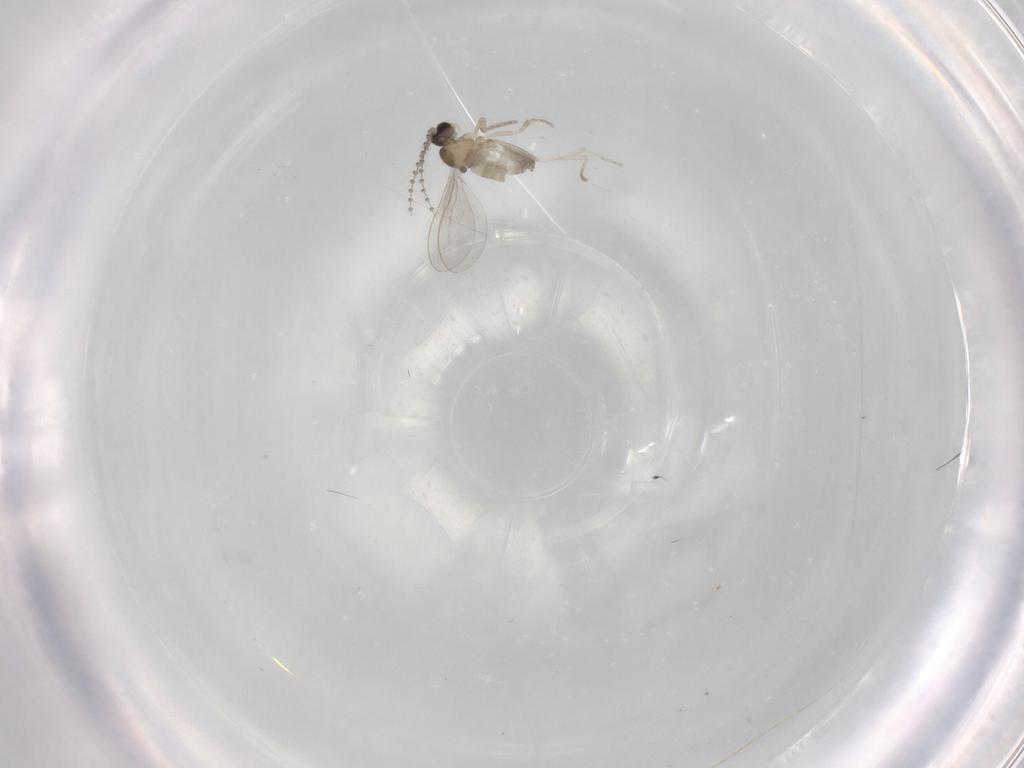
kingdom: Animalia
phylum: Arthropoda
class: Insecta
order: Diptera
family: Cecidomyiidae
